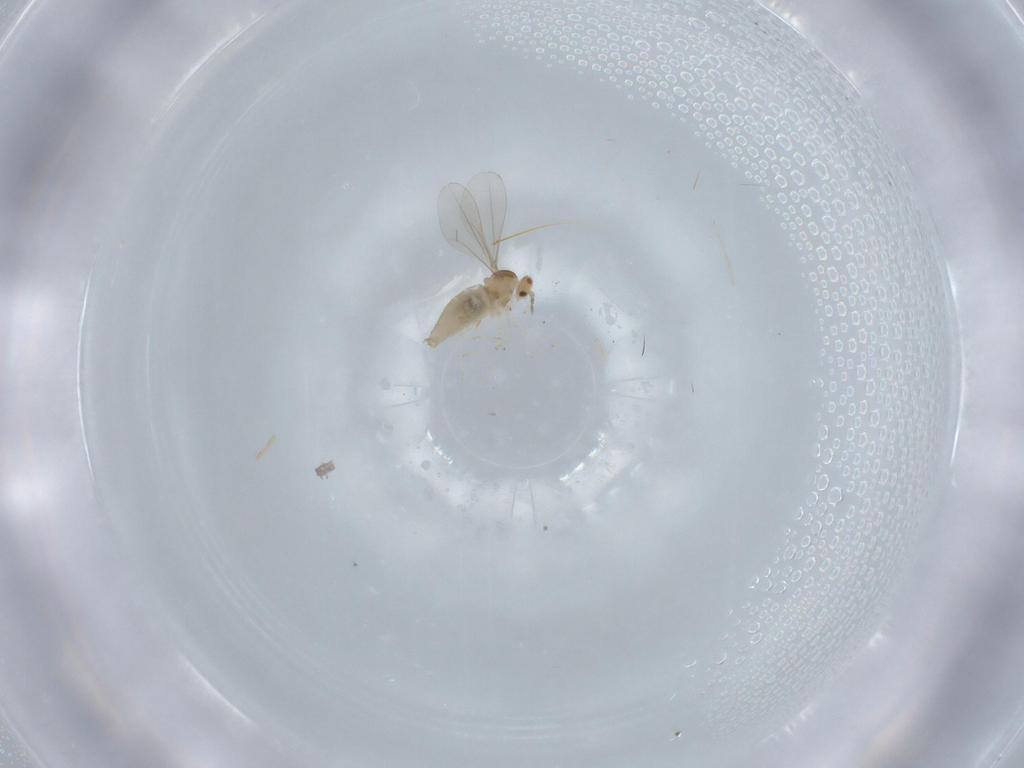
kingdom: Animalia
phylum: Arthropoda
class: Insecta
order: Diptera
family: Cecidomyiidae
